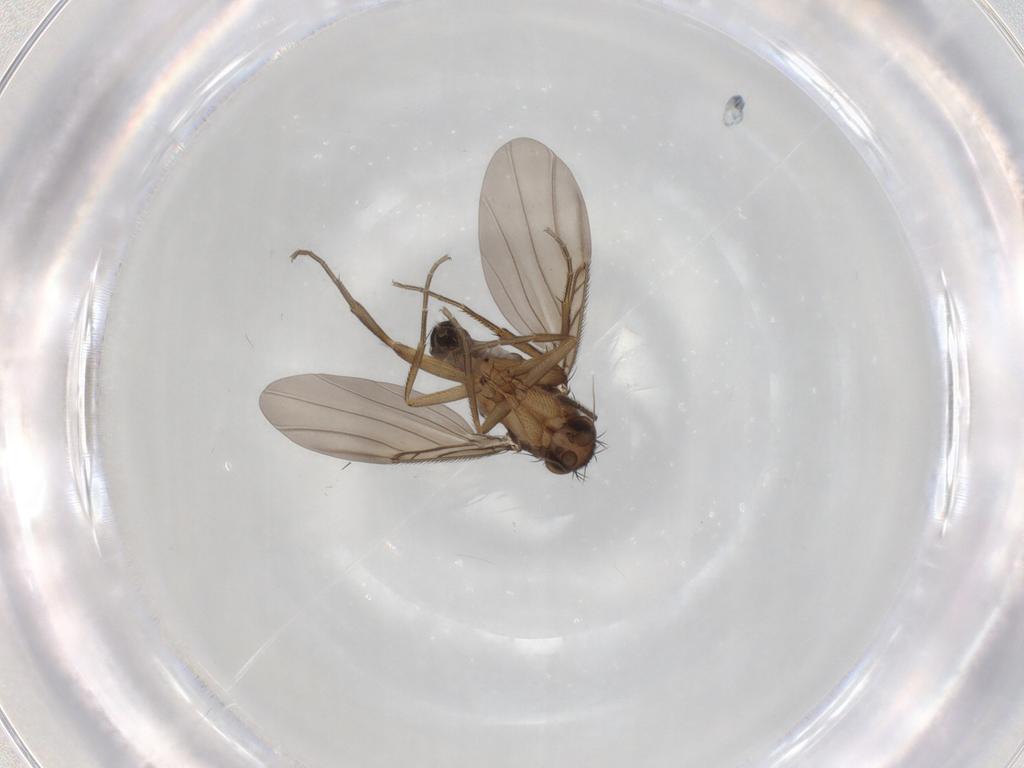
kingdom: Animalia
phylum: Arthropoda
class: Insecta
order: Diptera
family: Phoridae
